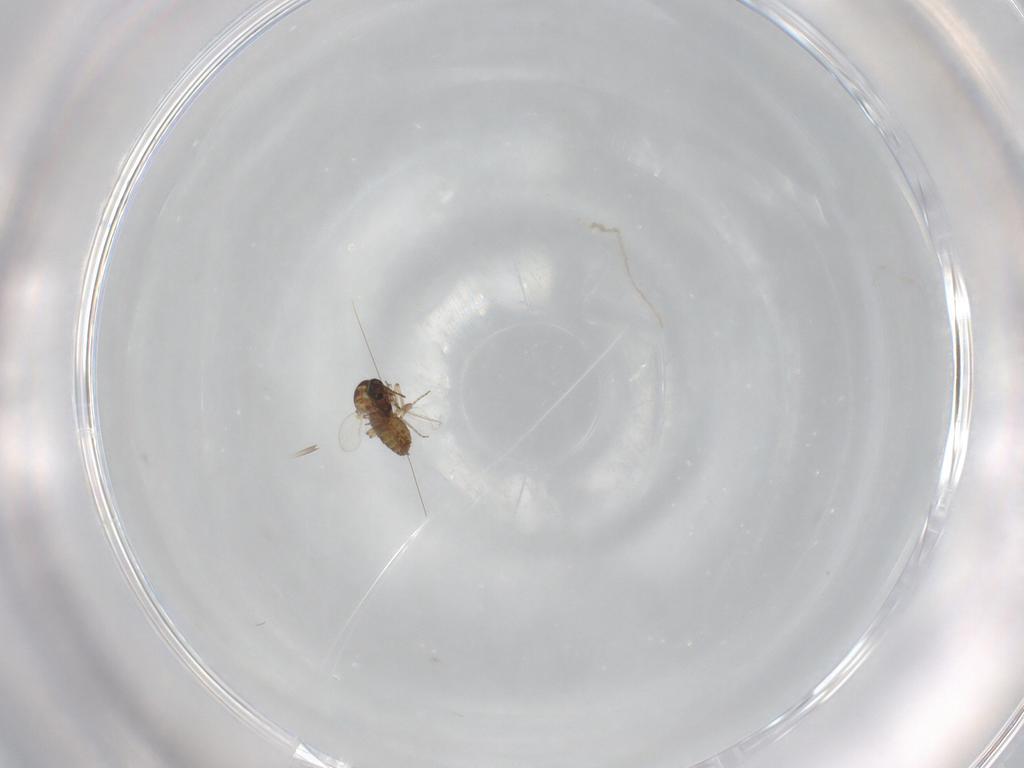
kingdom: Animalia
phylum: Arthropoda
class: Insecta
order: Diptera
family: Ceratopogonidae
